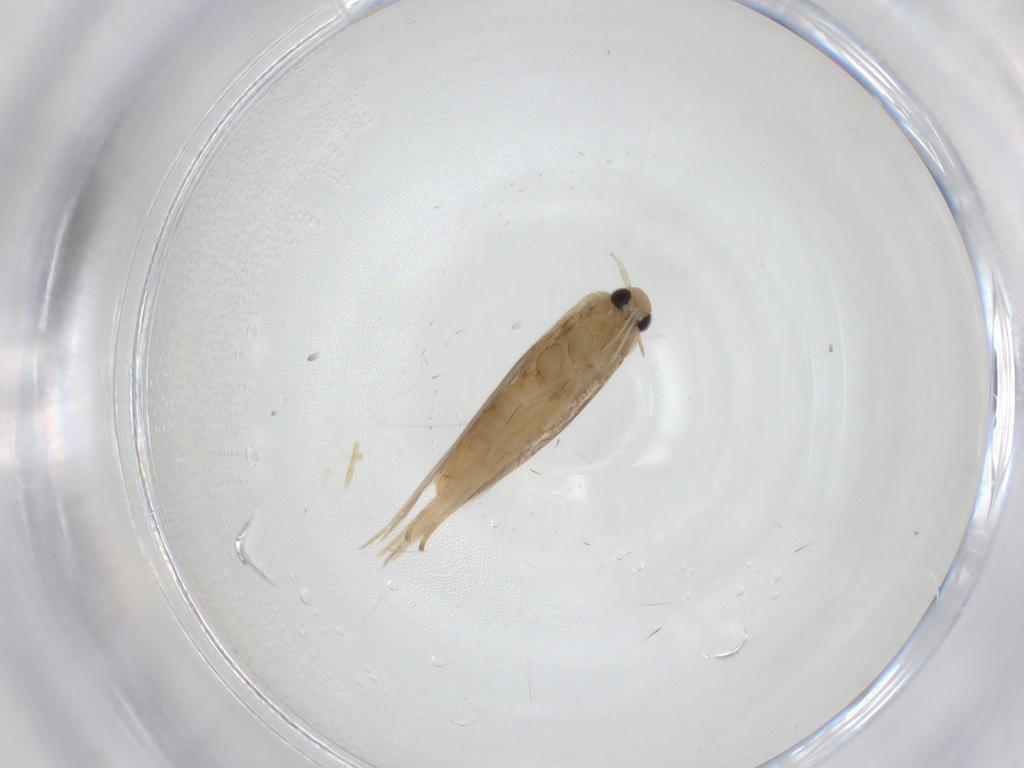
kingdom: Animalia
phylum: Arthropoda
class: Insecta
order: Lepidoptera
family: Gracillariidae
